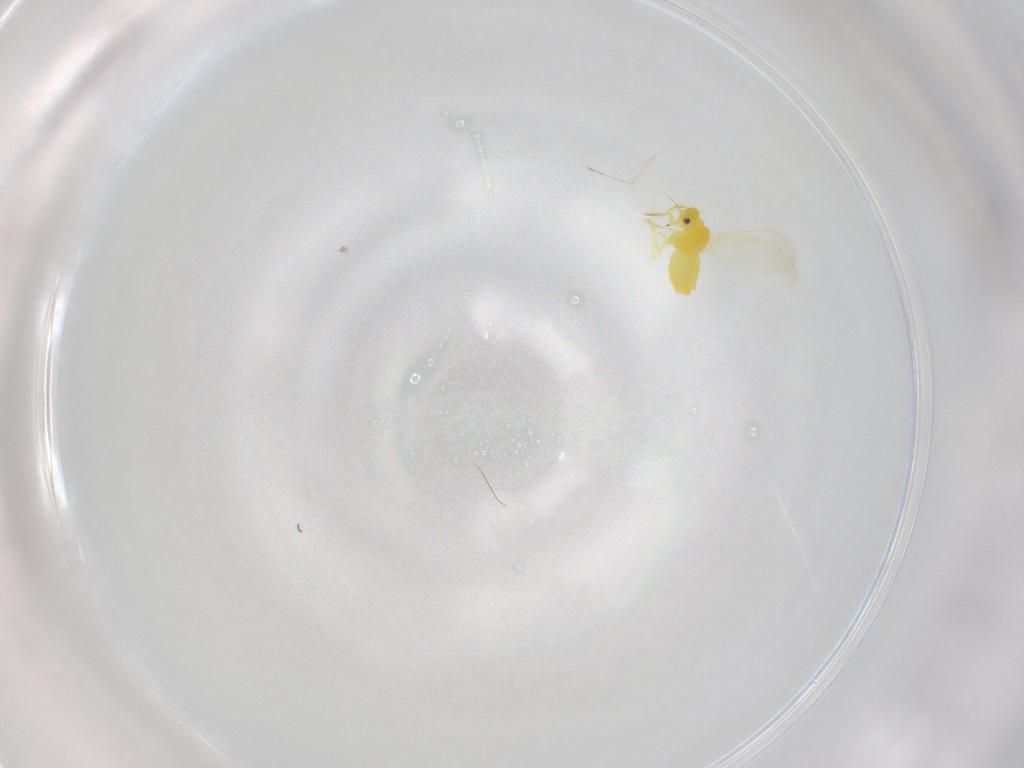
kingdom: Animalia
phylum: Arthropoda
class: Insecta
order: Hemiptera
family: Aleyrodidae
